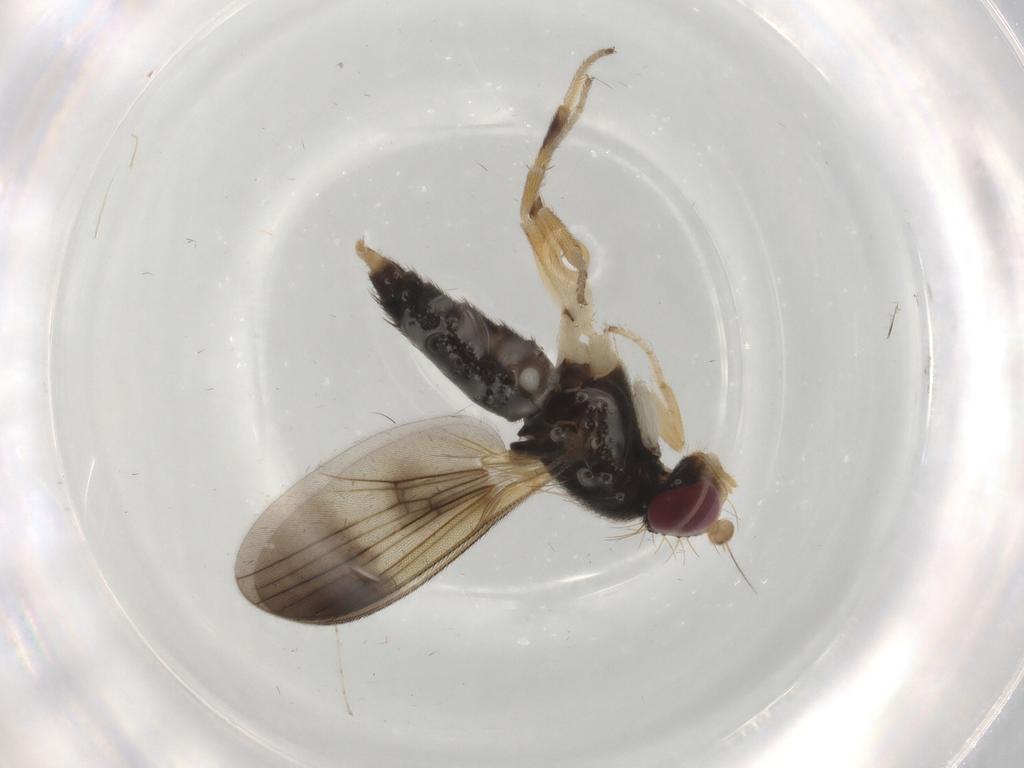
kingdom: Animalia
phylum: Arthropoda
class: Insecta
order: Diptera
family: Cecidomyiidae
